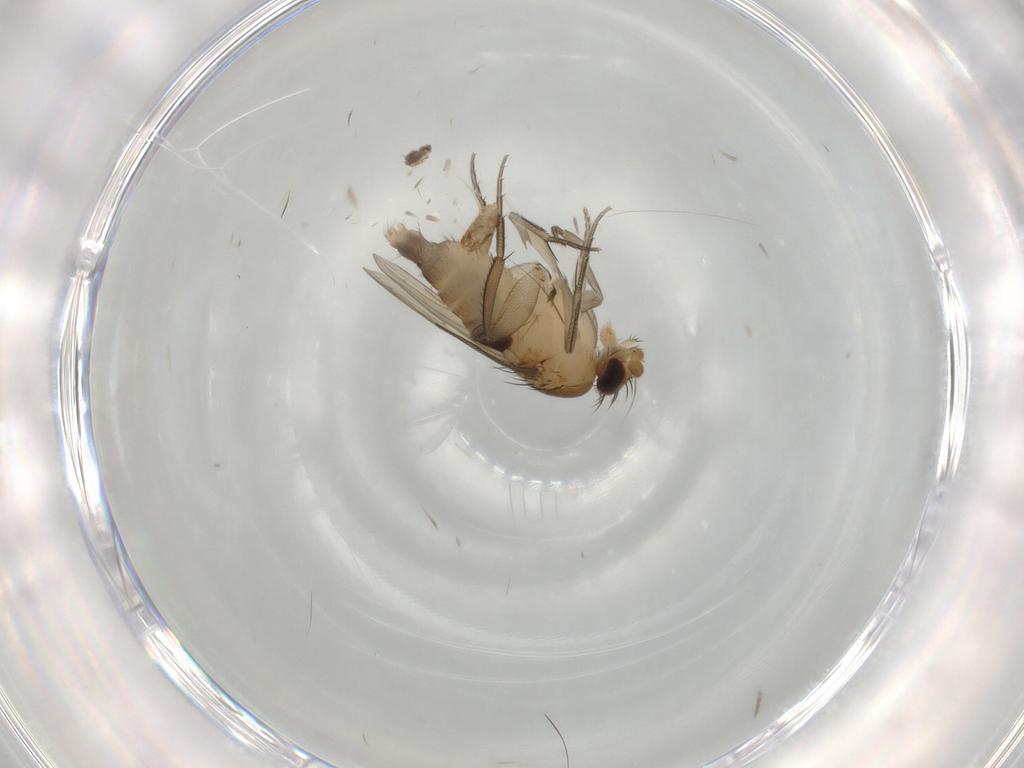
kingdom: Animalia
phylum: Arthropoda
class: Insecta
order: Diptera
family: Phoridae
